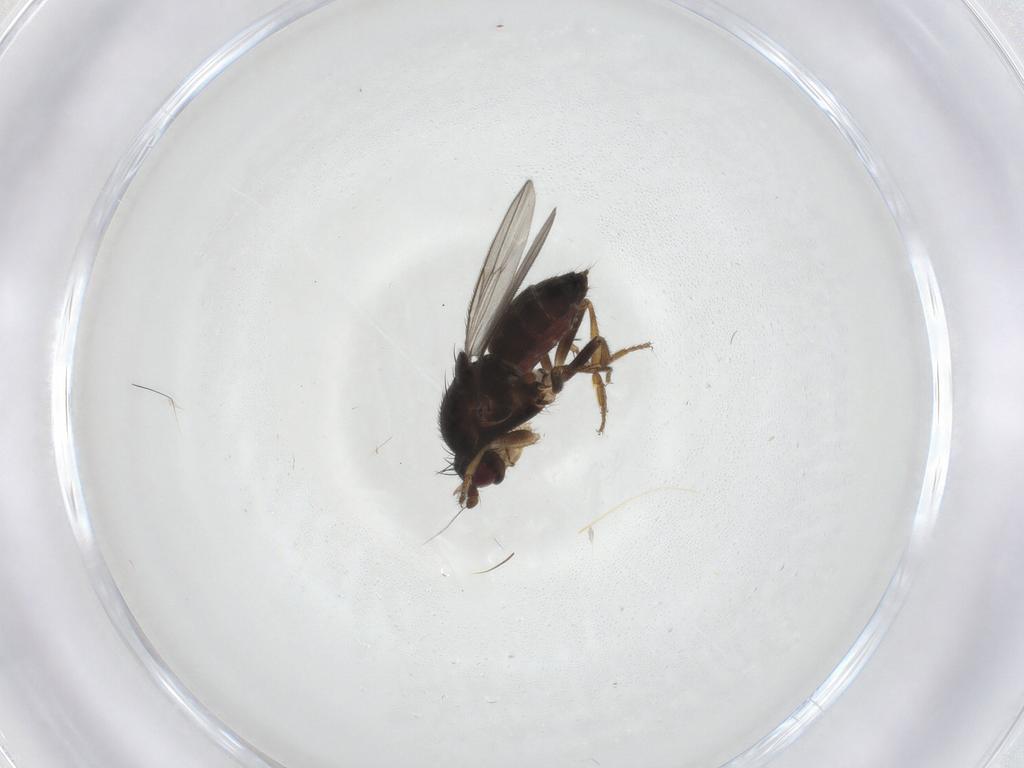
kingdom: Animalia
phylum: Arthropoda
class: Insecta
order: Diptera
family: Sphaeroceridae
